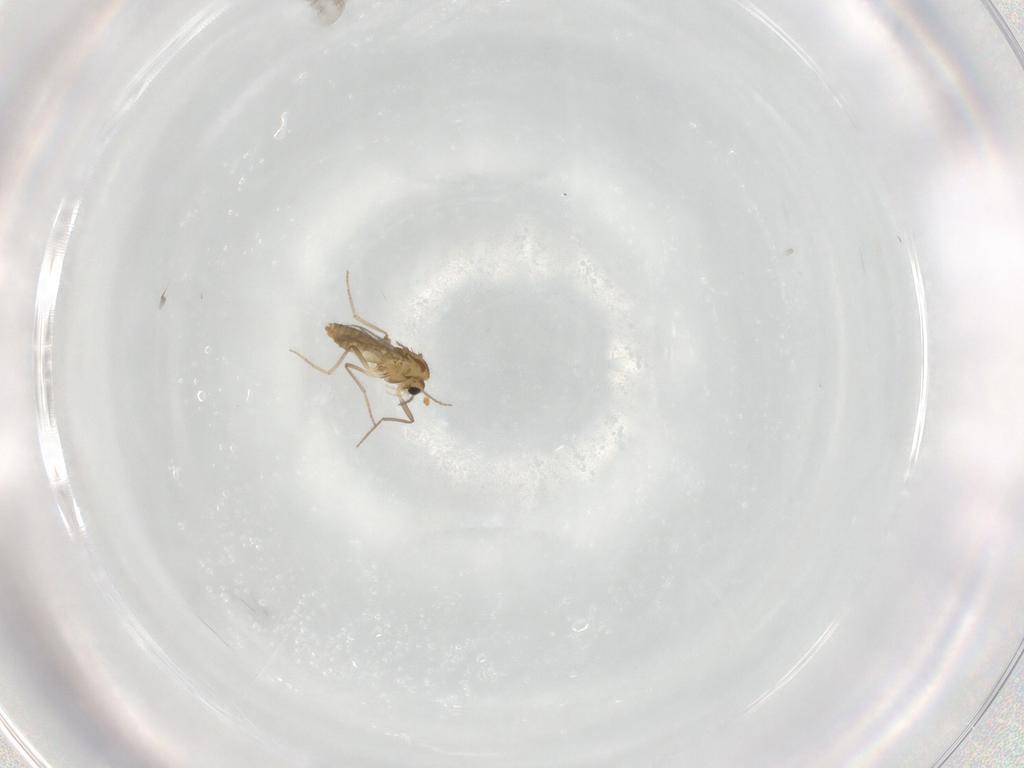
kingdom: Animalia
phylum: Arthropoda
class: Insecta
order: Diptera
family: Chironomidae
